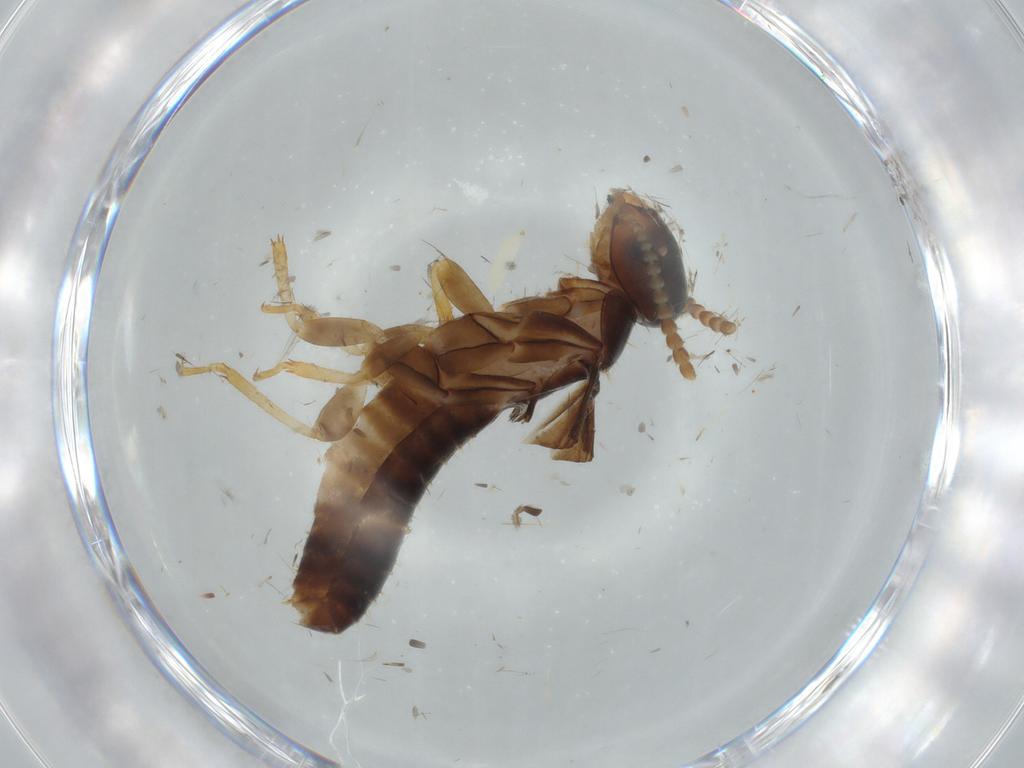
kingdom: Animalia
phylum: Arthropoda
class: Insecta
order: Blattodea
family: Kalotermitidae
